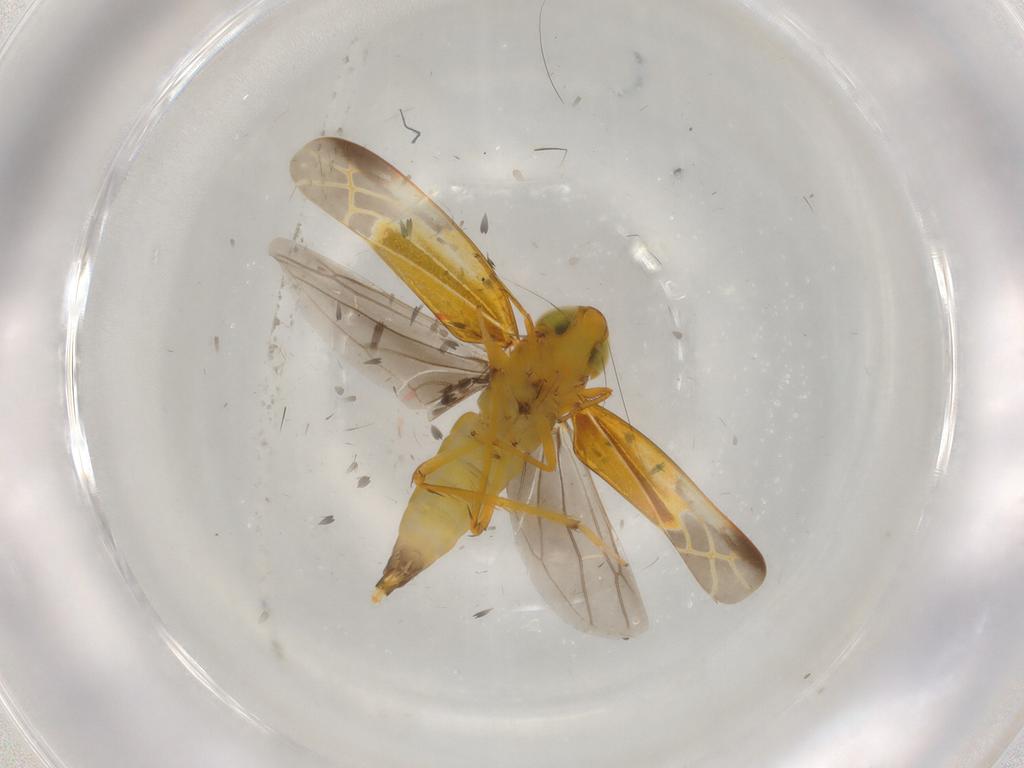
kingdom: Animalia
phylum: Arthropoda
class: Insecta
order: Hemiptera
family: Cicadellidae
